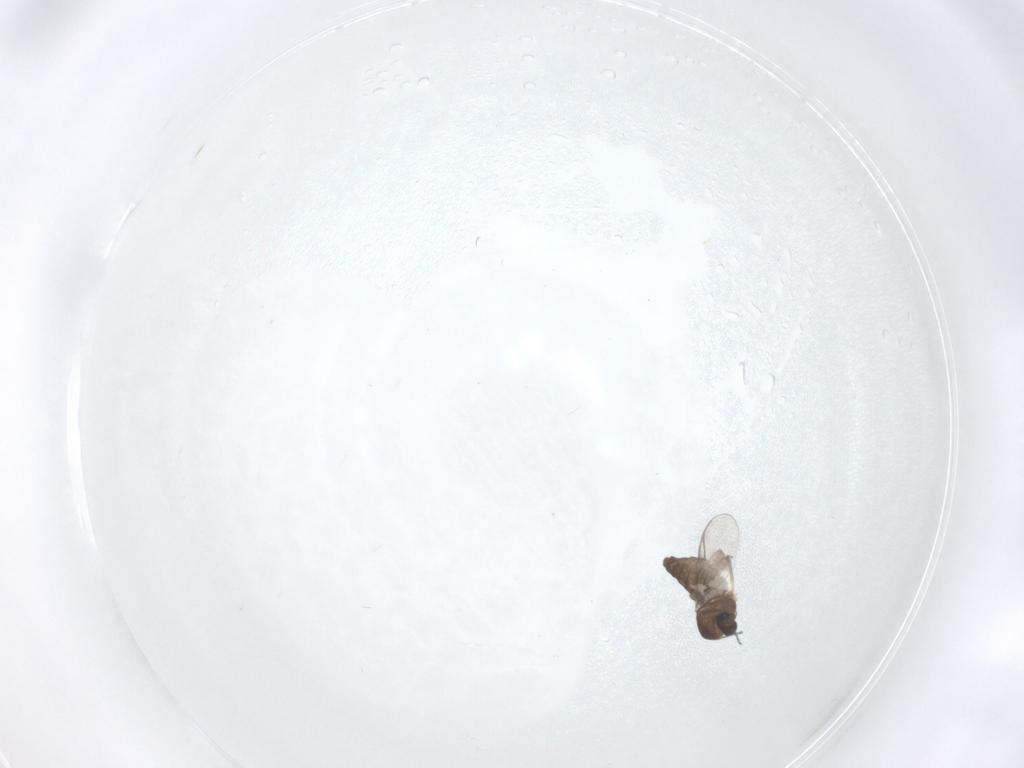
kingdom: Animalia
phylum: Arthropoda
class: Insecta
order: Diptera
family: Chironomidae
